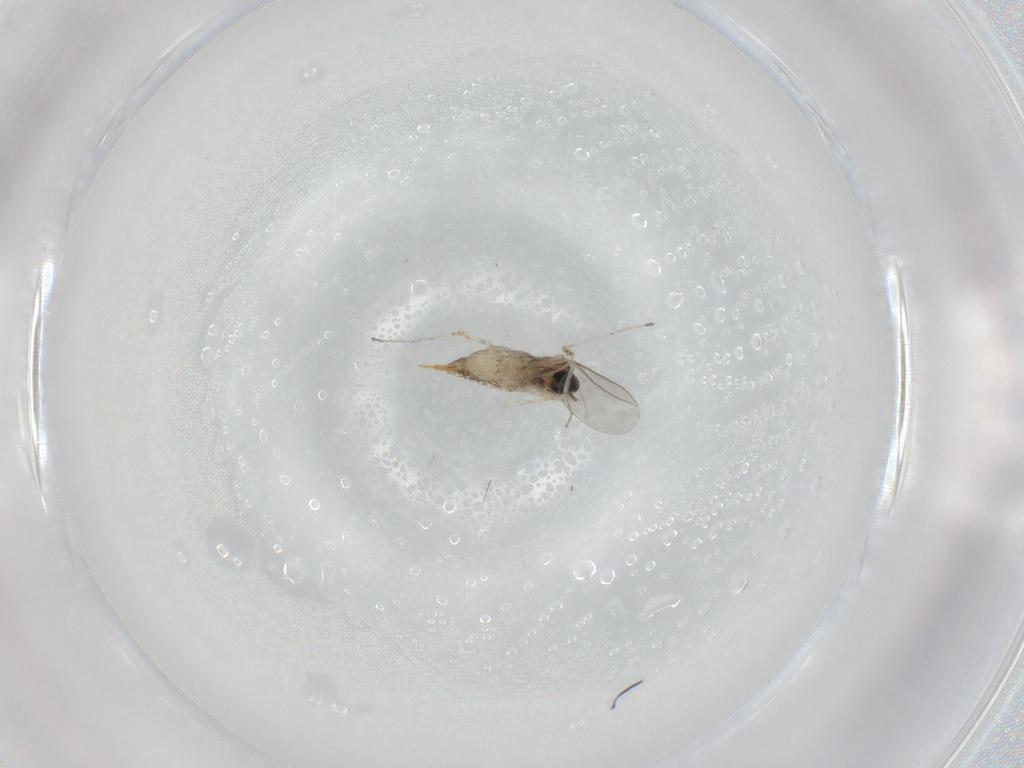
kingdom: Animalia
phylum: Arthropoda
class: Insecta
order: Diptera
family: Cecidomyiidae
